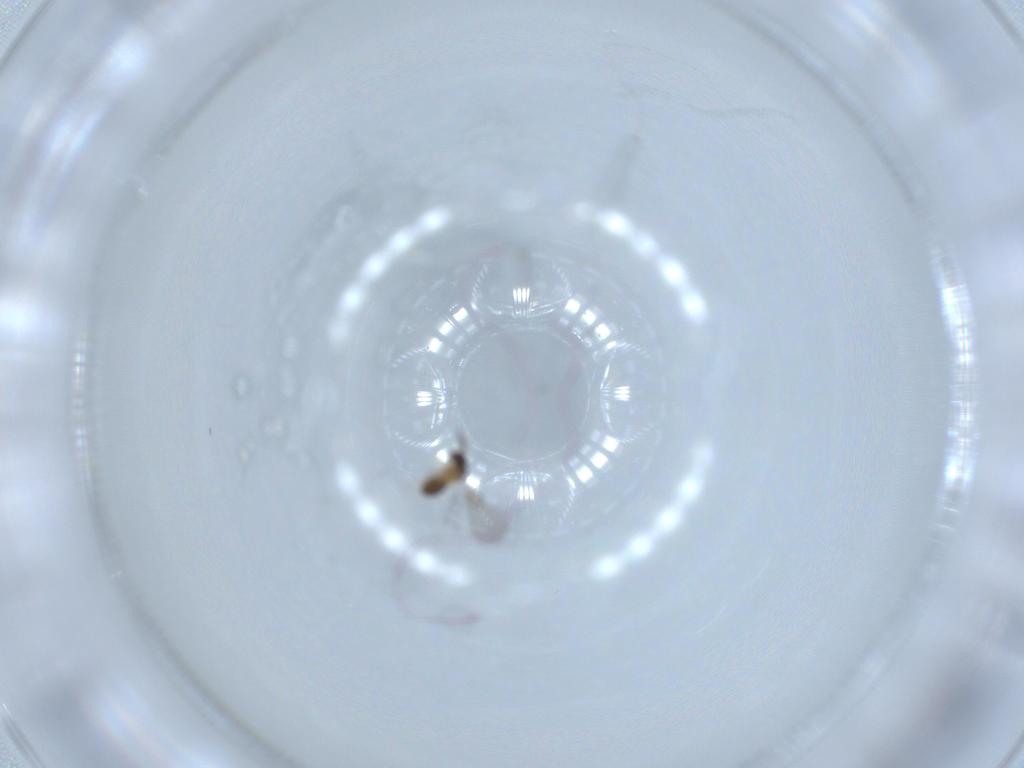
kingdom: Animalia
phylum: Arthropoda
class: Insecta
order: Hymenoptera
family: Trichogrammatidae
